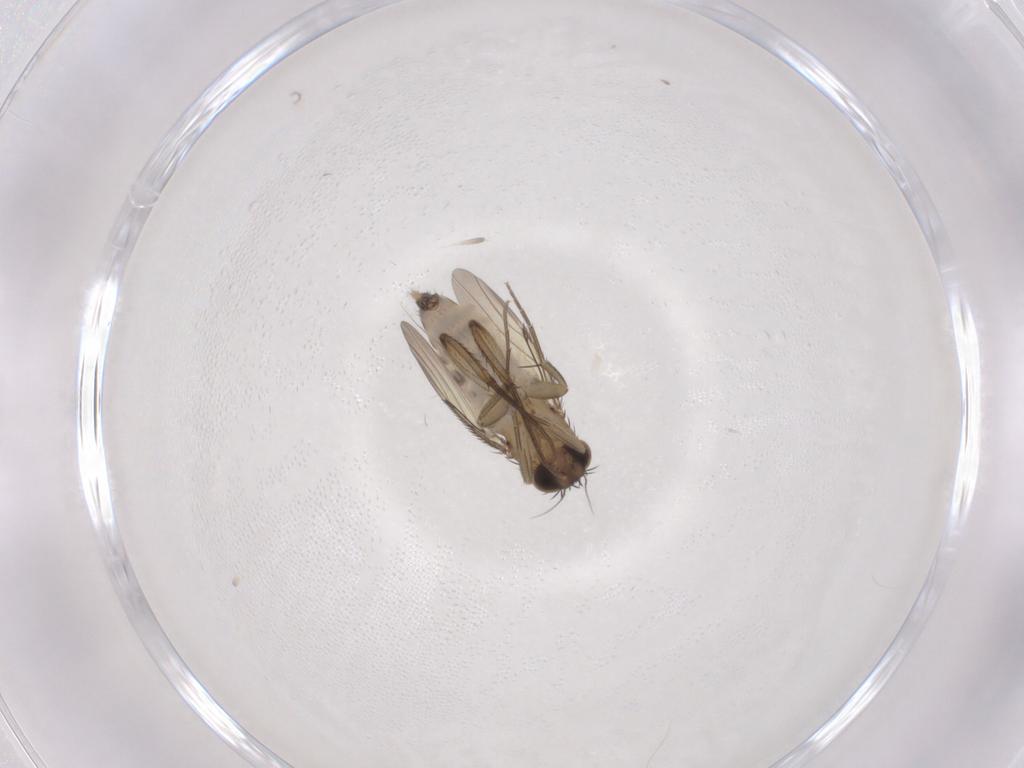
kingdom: Animalia
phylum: Arthropoda
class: Insecta
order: Diptera
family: Phoridae
